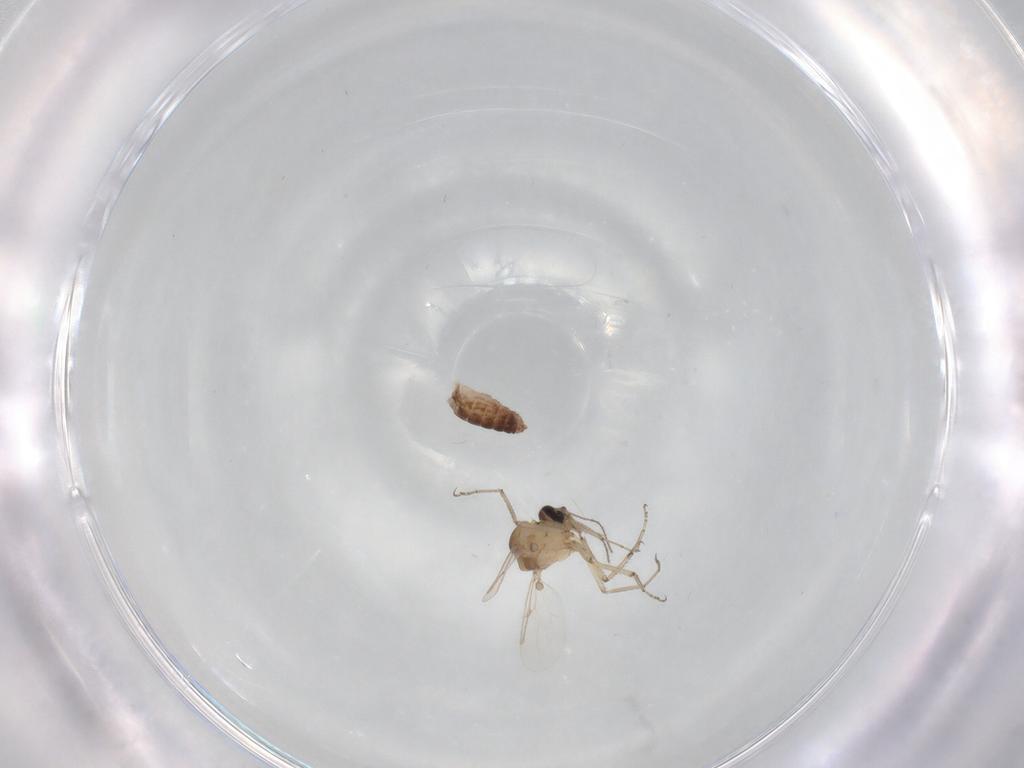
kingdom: Animalia
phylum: Arthropoda
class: Insecta
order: Diptera
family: Ceratopogonidae
